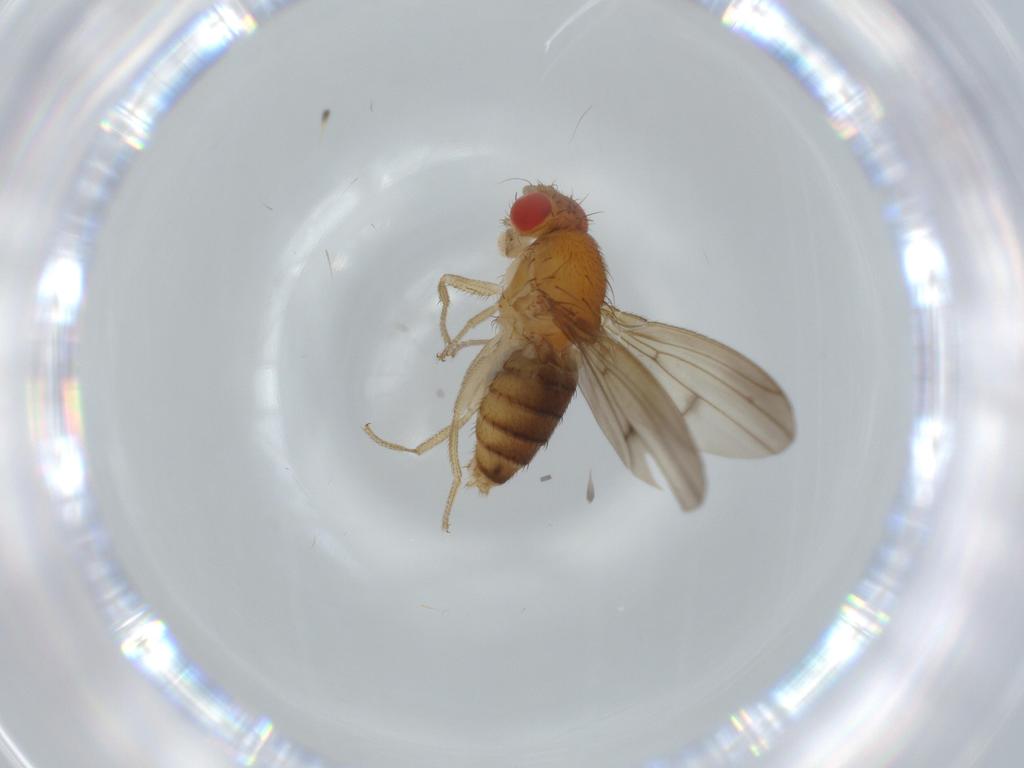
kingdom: Animalia
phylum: Arthropoda
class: Insecta
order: Diptera
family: Drosophilidae
